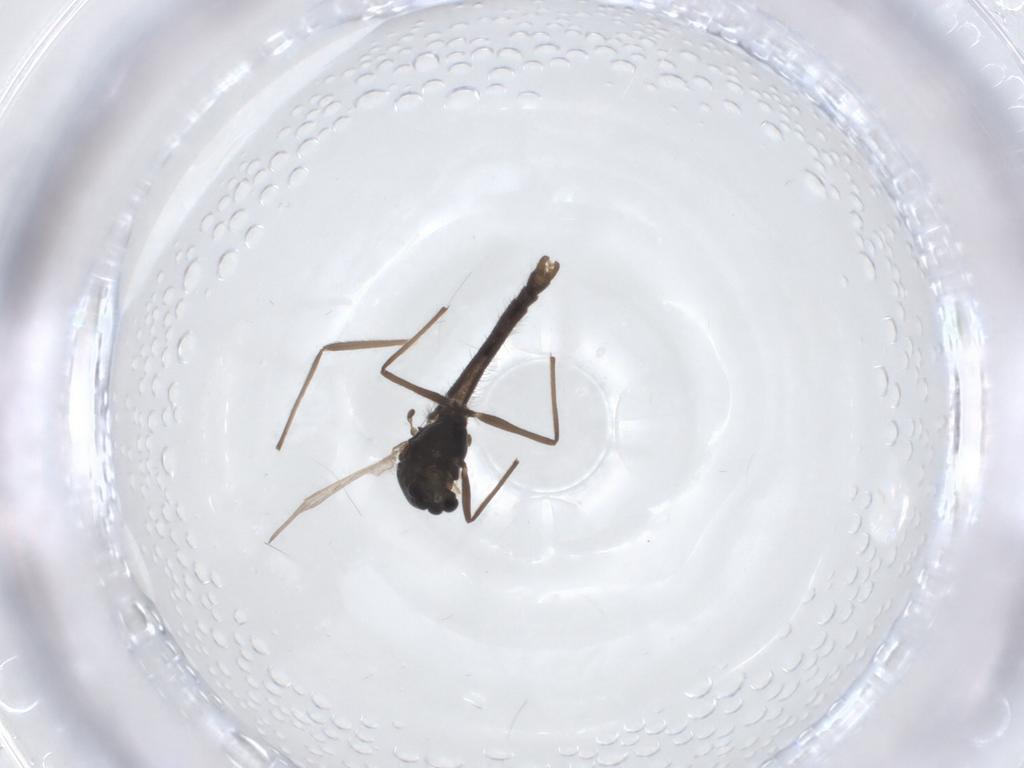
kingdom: Animalia
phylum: Arthropoda
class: Insecta
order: Diptera
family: Chironomidae
